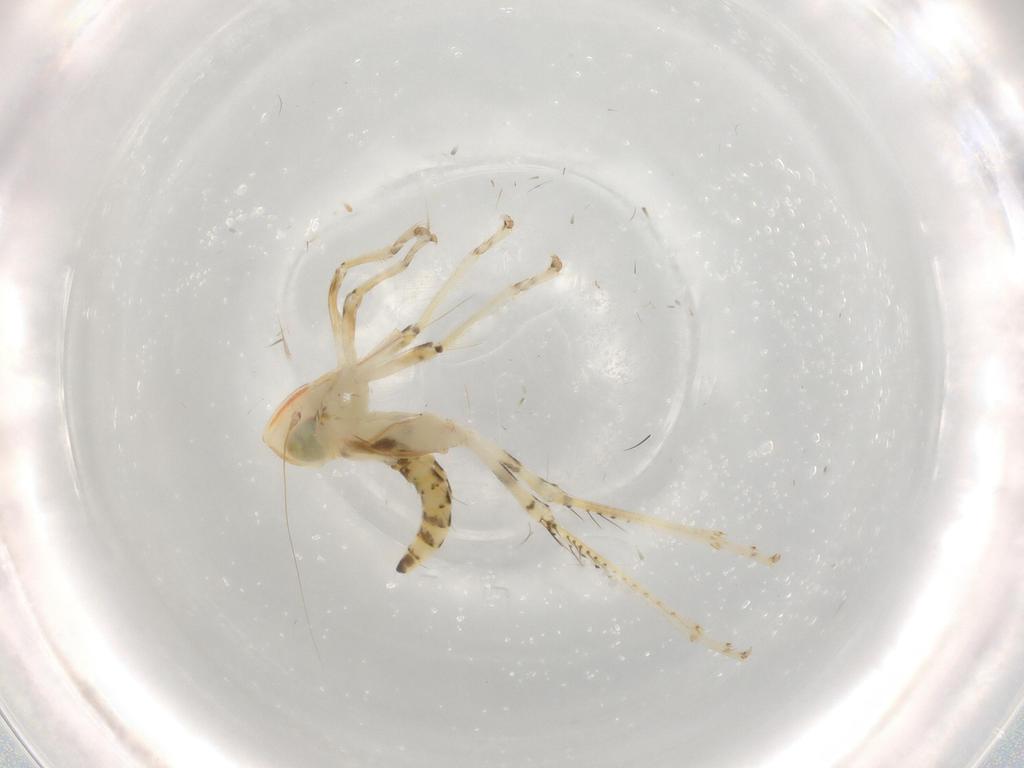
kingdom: Animalia
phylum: Arthropoda
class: Insecta
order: Hemiptera
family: Cicadellidae
